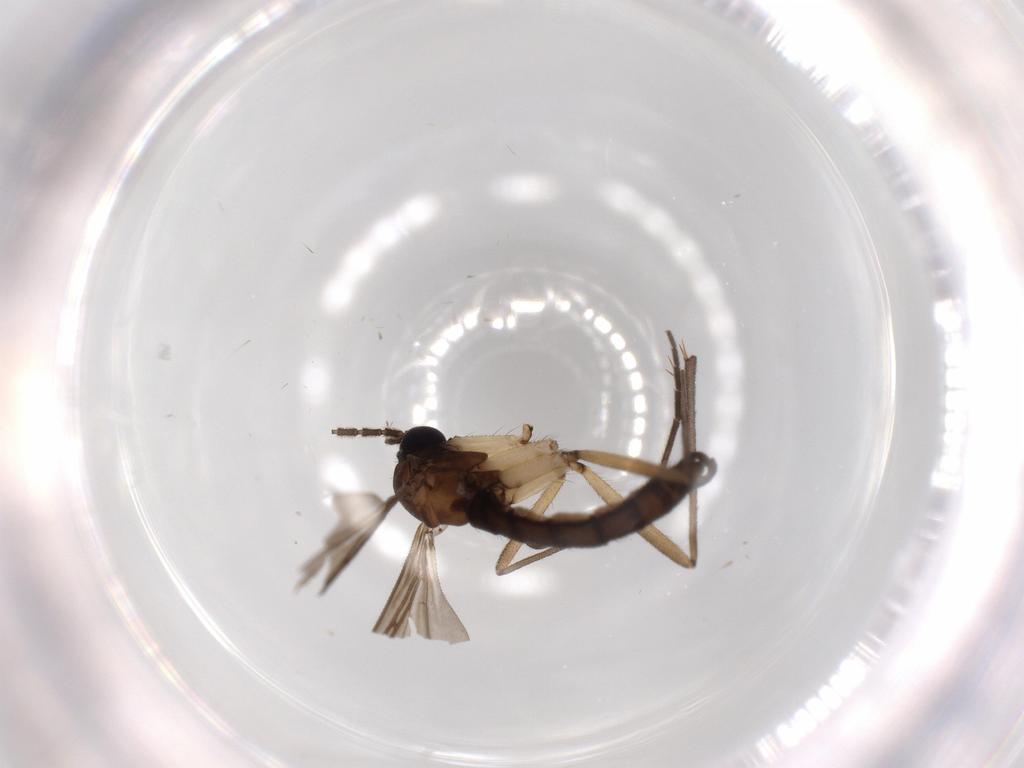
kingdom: Animalia
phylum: Arthropoda
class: Insecta
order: Diptera
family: Sciaridae
